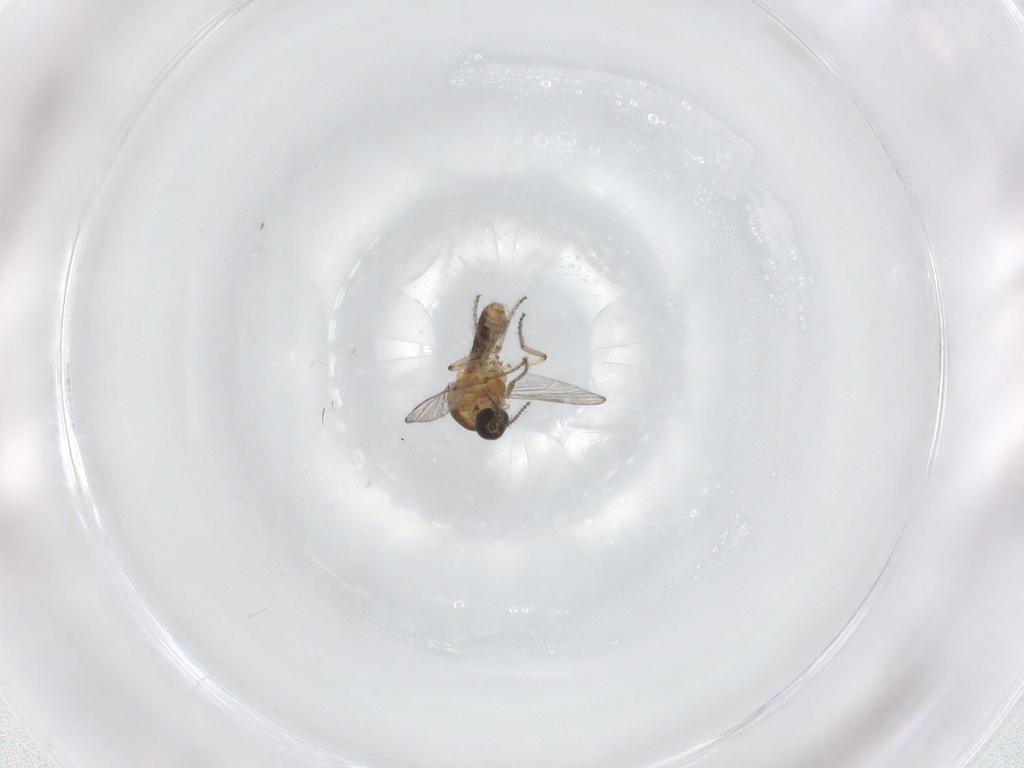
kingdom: Animalia
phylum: Arthropoda
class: Insecta
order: Diptera
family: Ceratopogonidae
